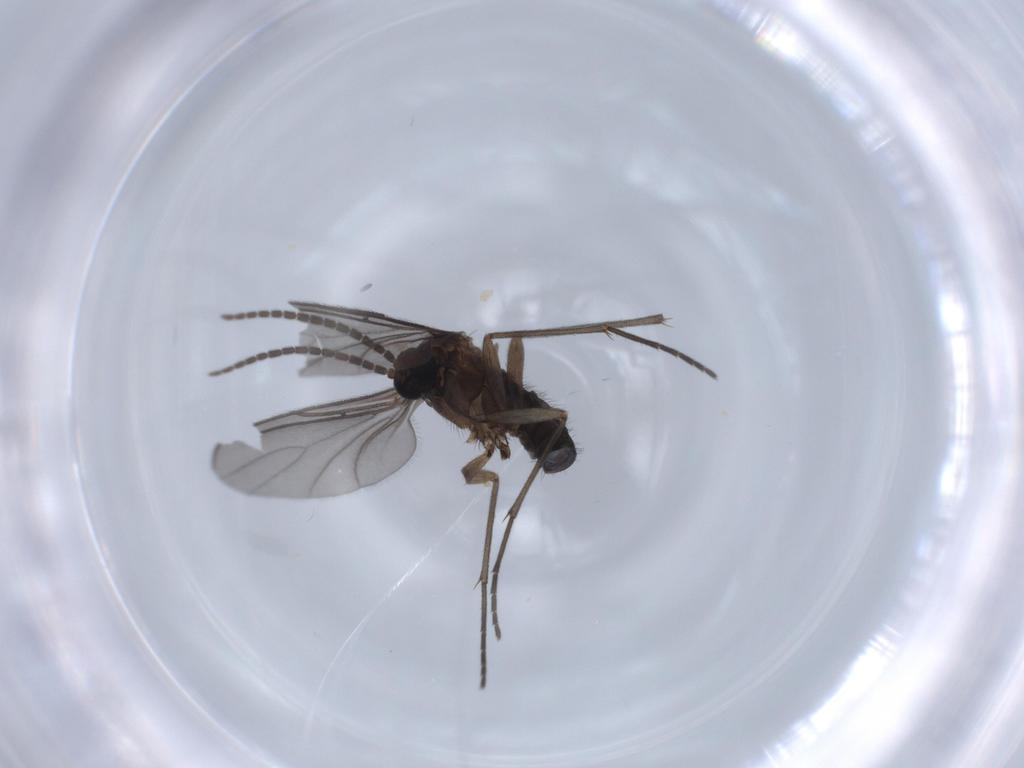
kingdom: Animalia
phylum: Arthropoda
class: Insecta
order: Diptera
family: Sciaridae
